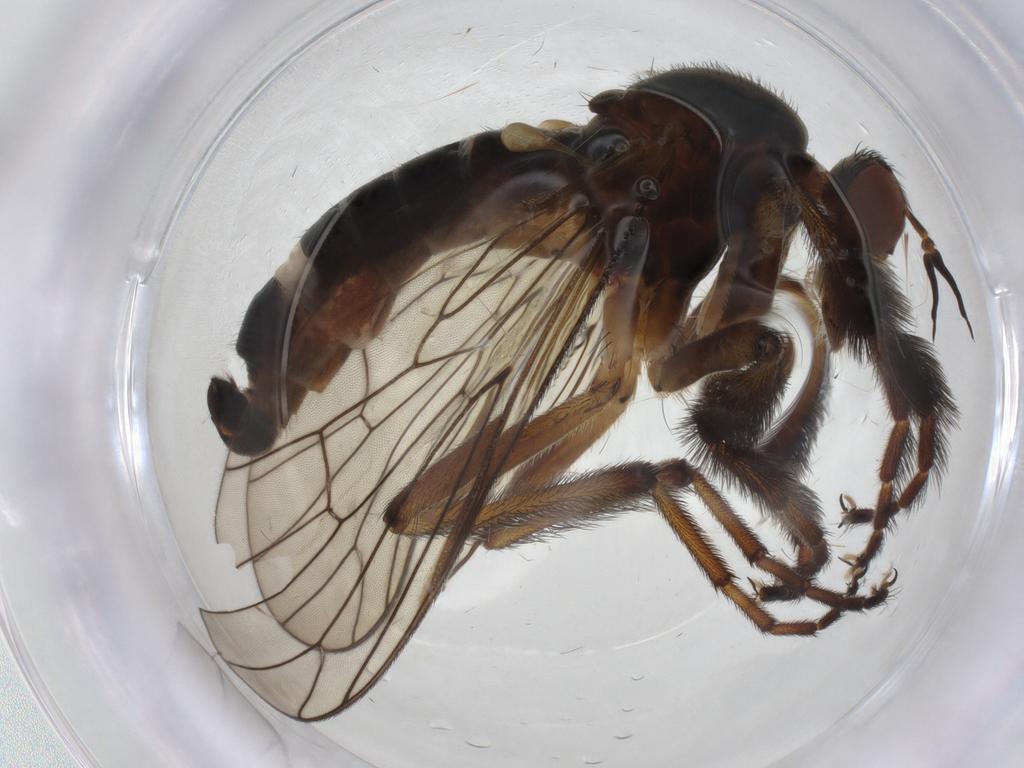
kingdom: Animalia
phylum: Arthropoda
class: Insecta
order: Diptera
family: Empididae
